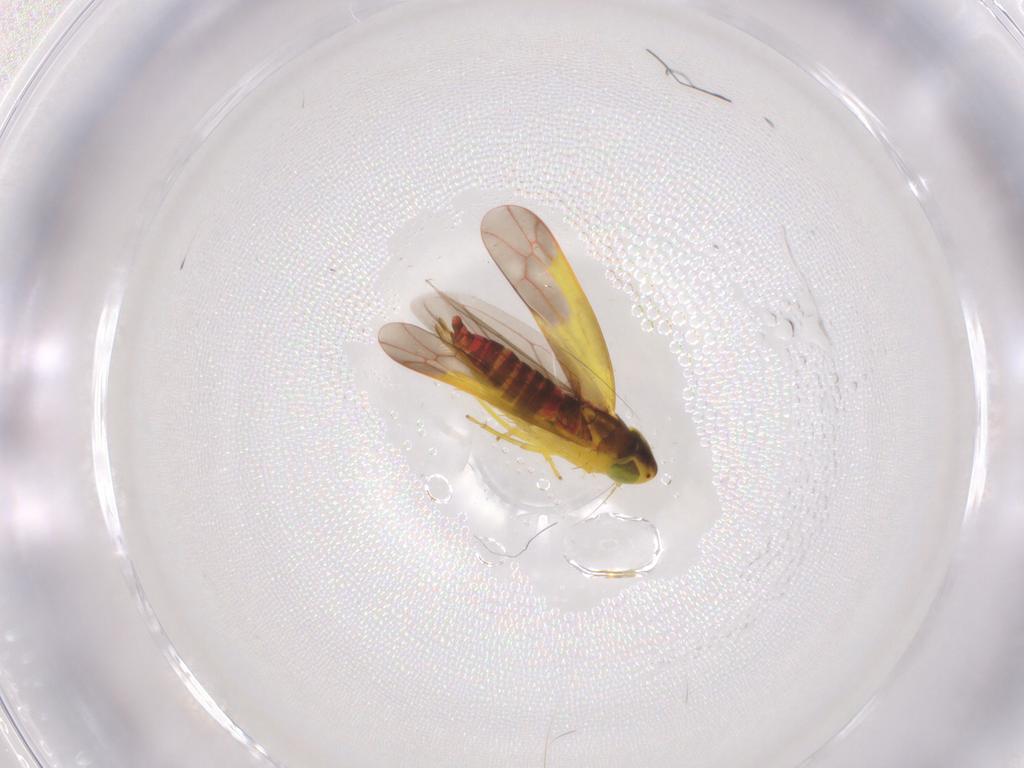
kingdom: Animalia
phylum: Arthropoda
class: Insecta
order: Hemiptera
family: Cicadellidae
